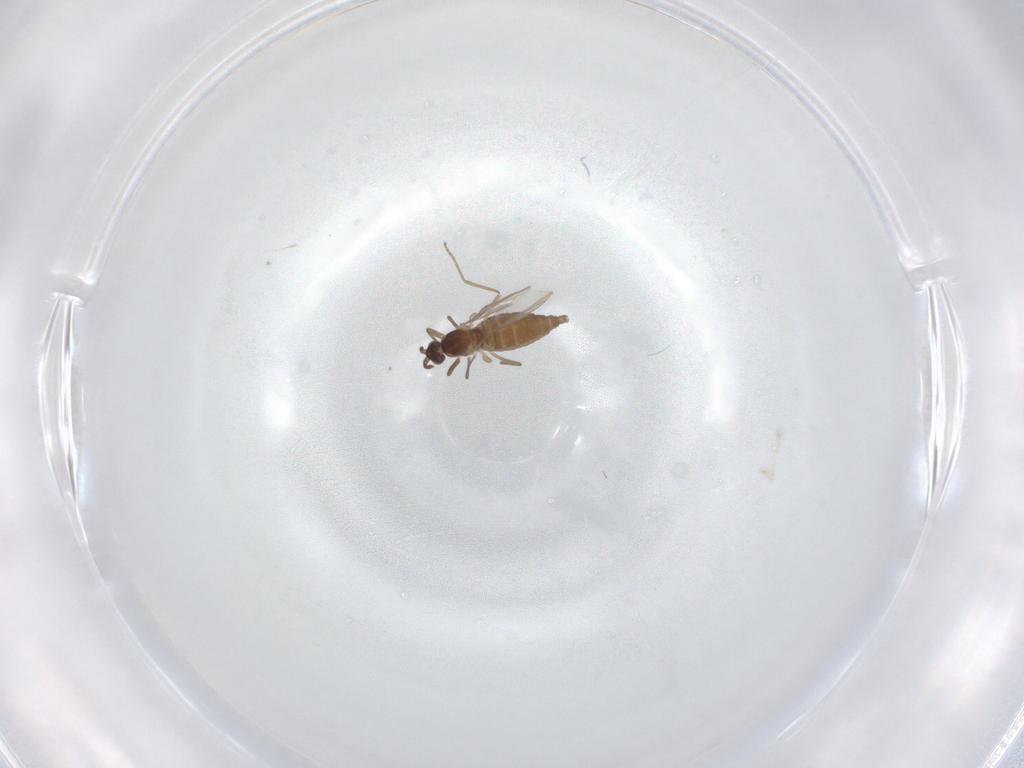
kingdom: Animalia
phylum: Arthropoda
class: Insecta
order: Diptera
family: Cecidomyiidae
